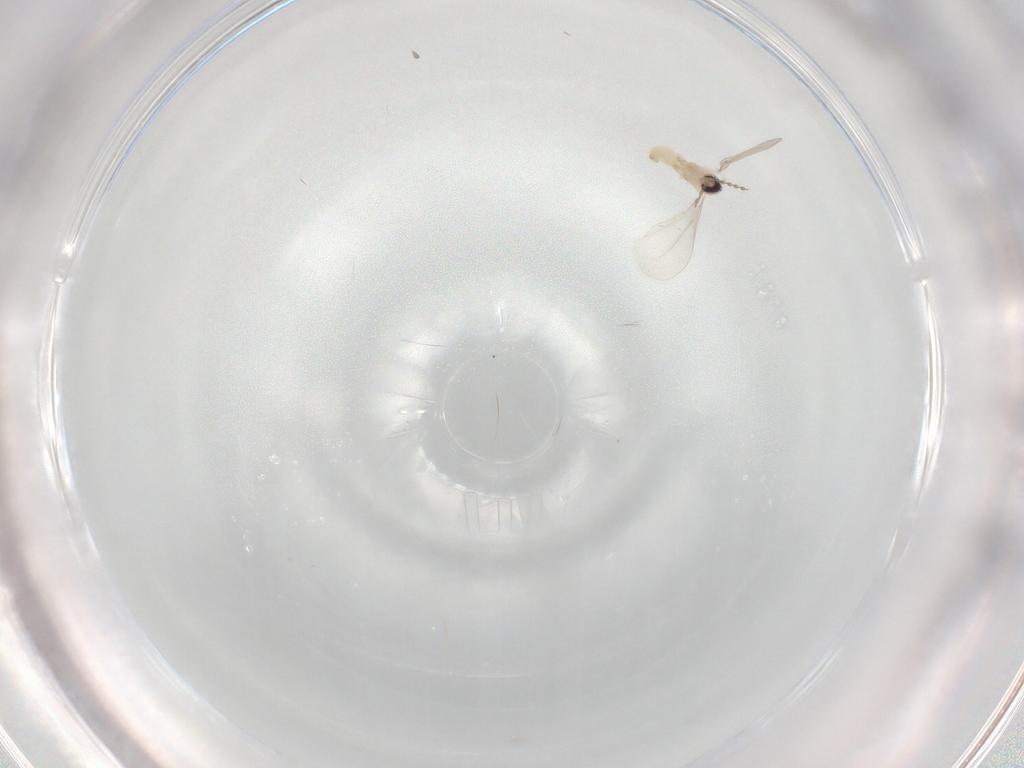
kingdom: Animalia
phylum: Arthropoda
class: Insecta
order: Diptera
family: Cecidomyiidae
